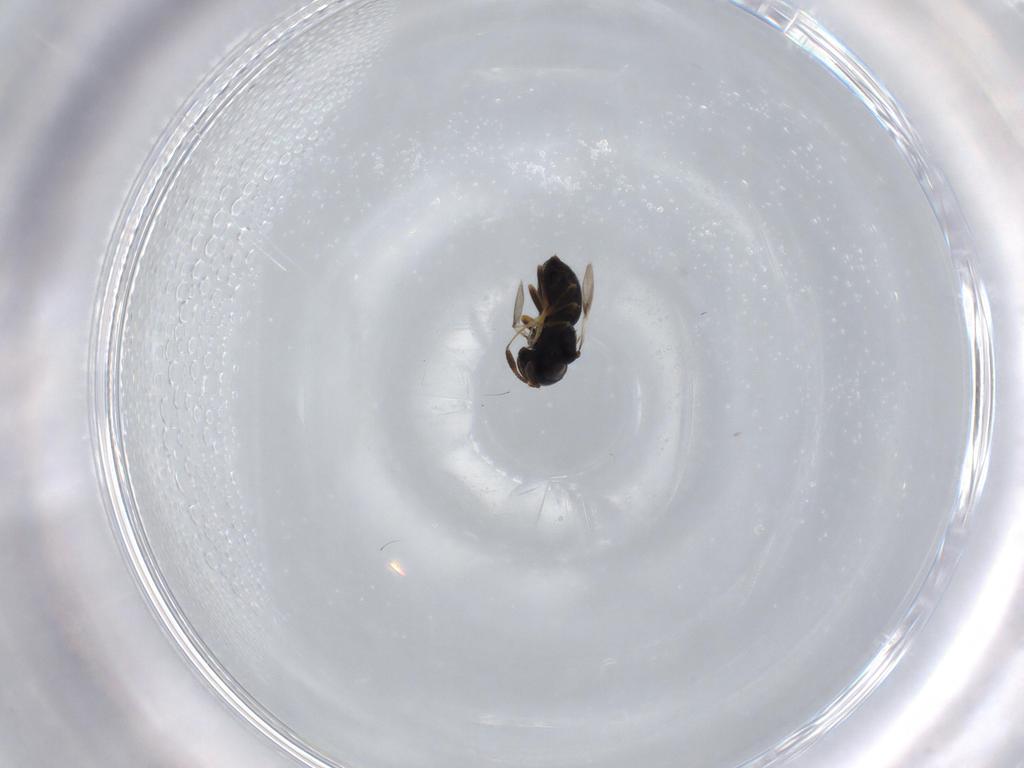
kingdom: Animalia
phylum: Arthropoda
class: Insecta
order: Hymenoptera
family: Scelionidae
